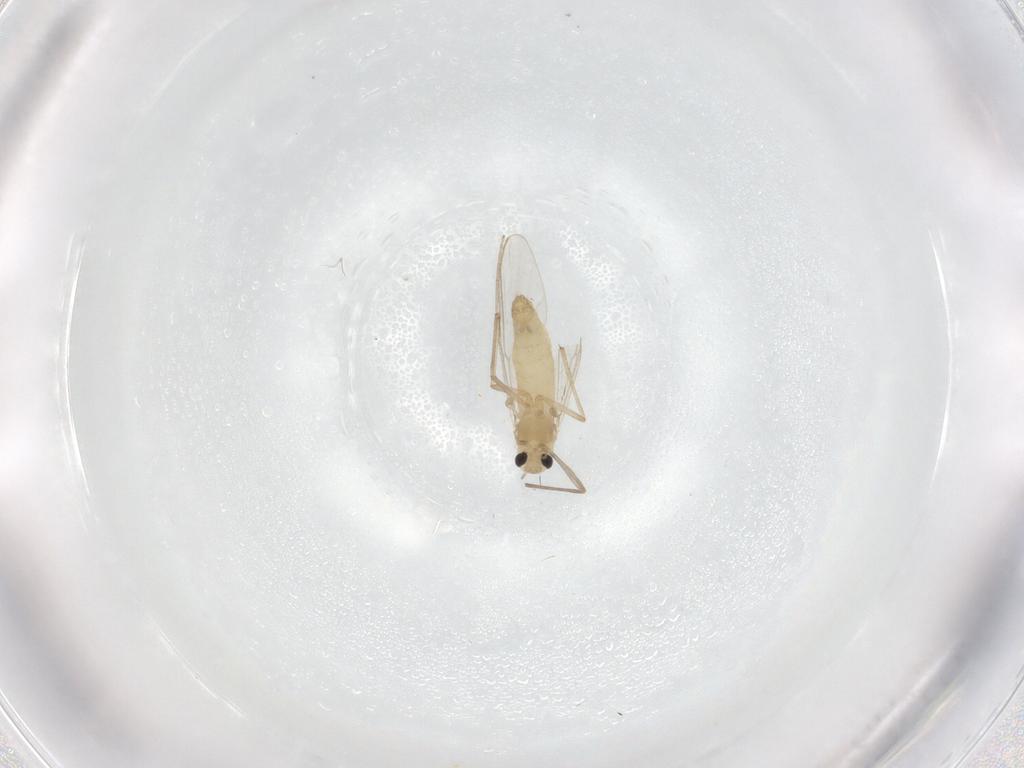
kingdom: Animalia
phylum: Arthropoda
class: Insecta
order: Diptera
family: Chironomidae
